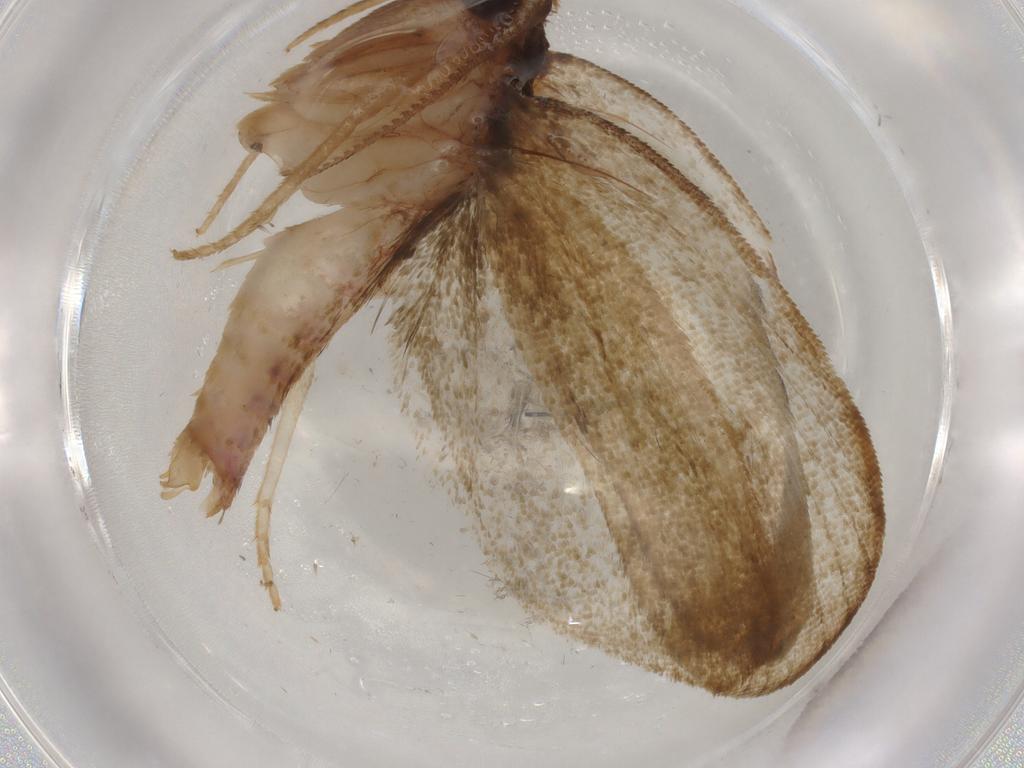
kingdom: Animalia
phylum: Arthropoda
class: Insecta
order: Lepidoptera
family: Geometridae
